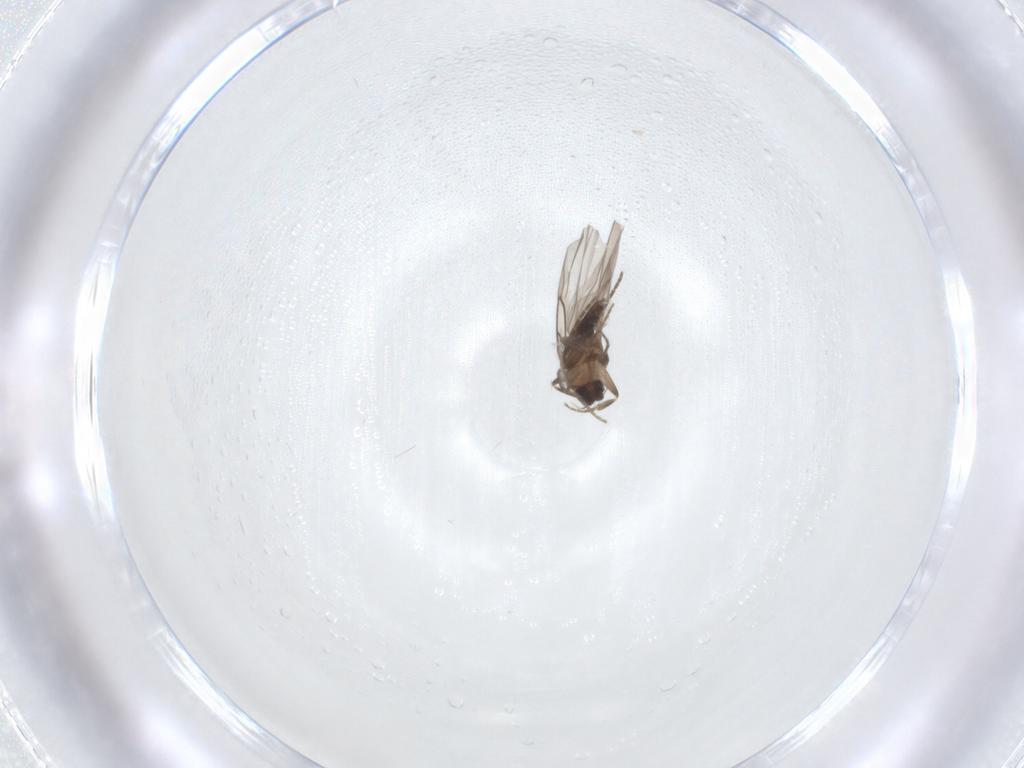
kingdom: Animalia
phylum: Arthropoda
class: Insecta
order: Diptera
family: Limoniidae
